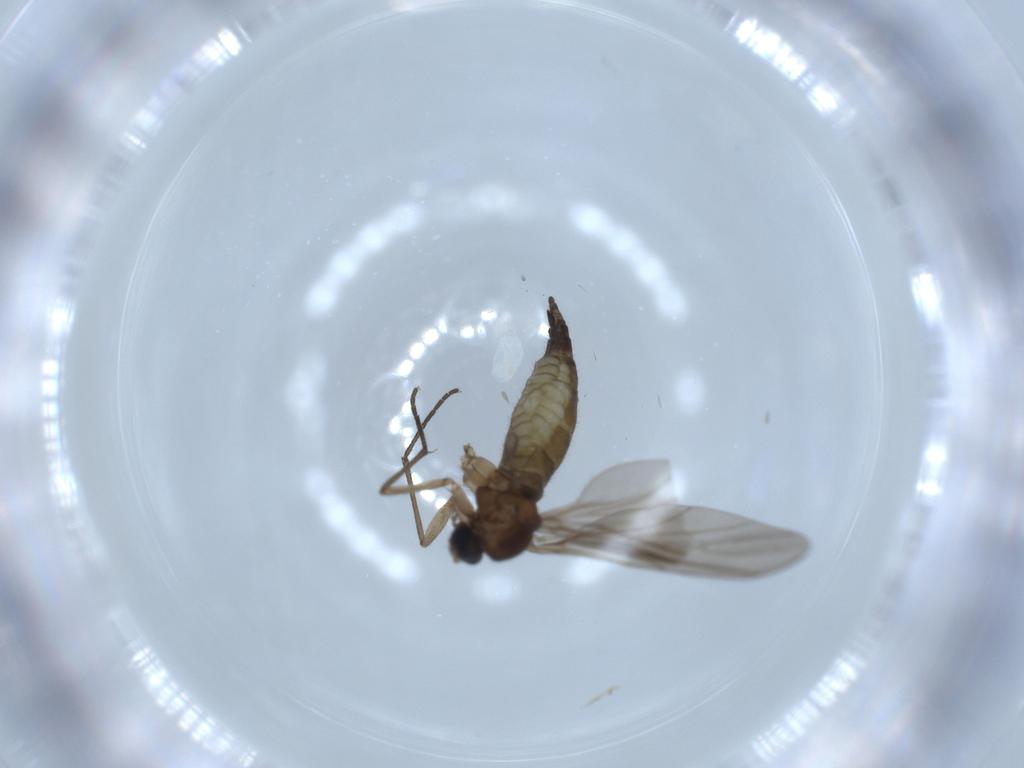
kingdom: Animalia
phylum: Arthropoda
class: Insecta
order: Diptera
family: Sciaridae
